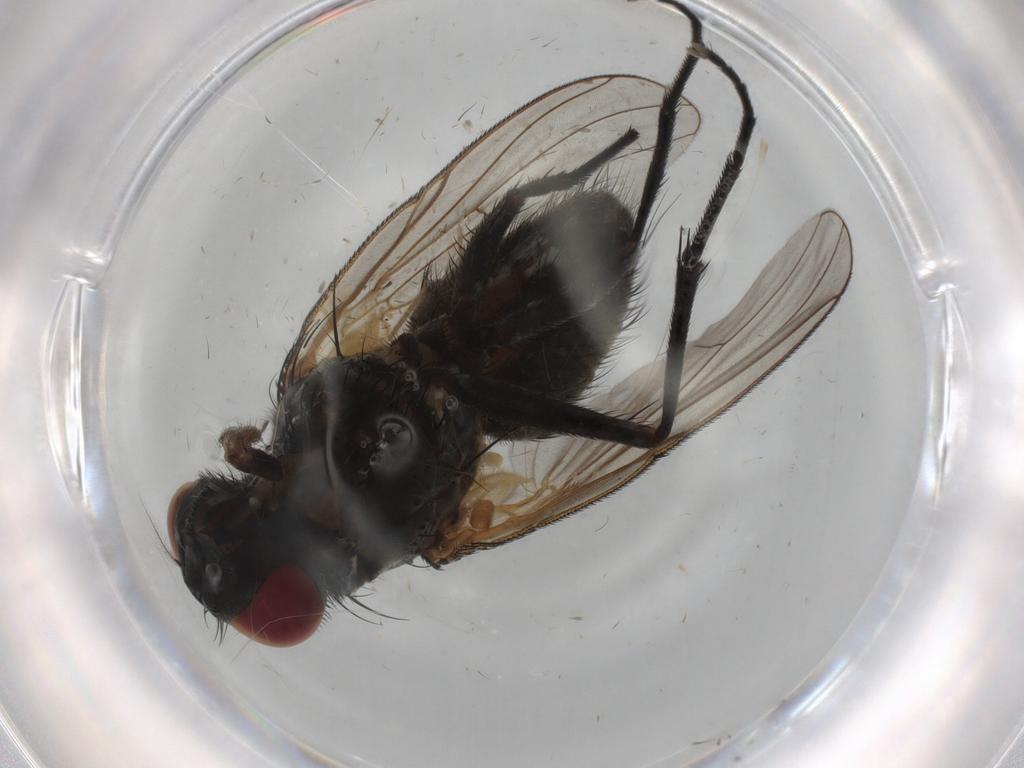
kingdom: Animalia
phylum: Arthropoda
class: Insecta
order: Diptera
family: Muscidae
